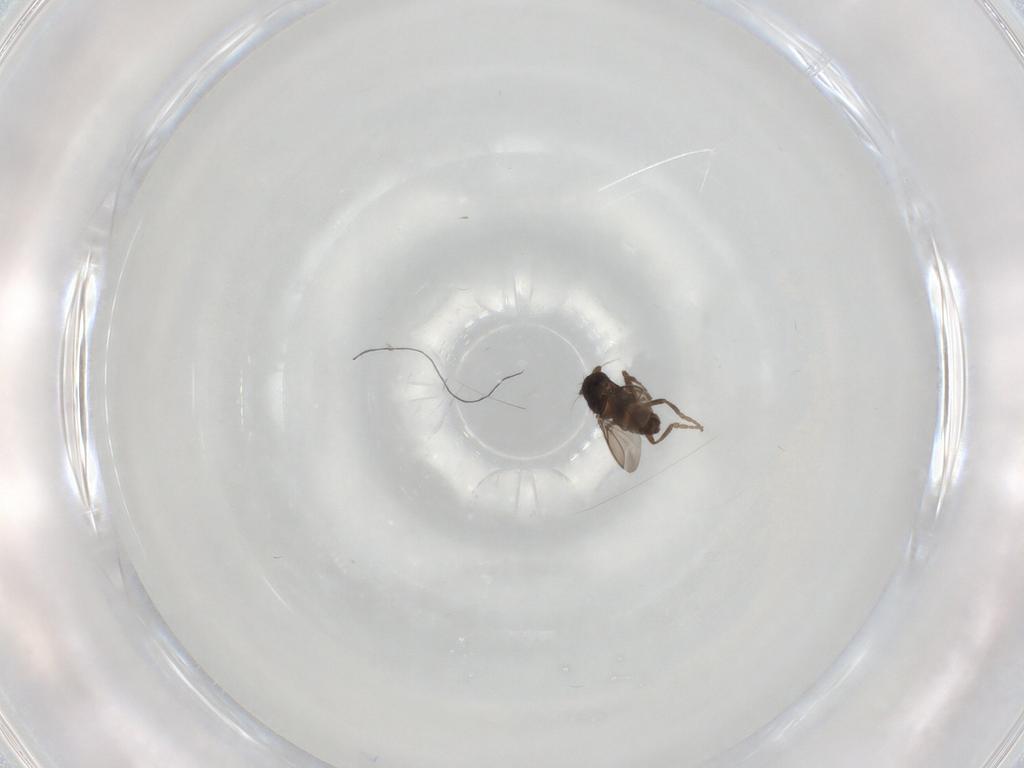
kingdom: Animalia
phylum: Arthropoda
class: Insecta
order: Diptera
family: Sphaeroceridae
